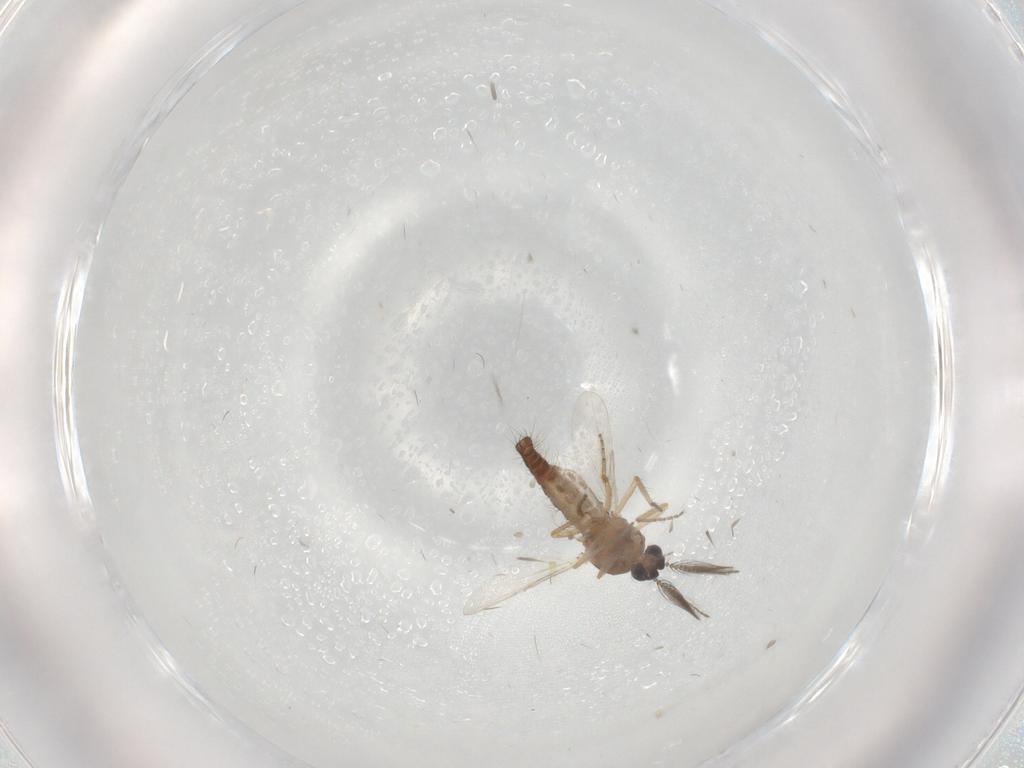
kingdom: Animalia
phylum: Arthropoda
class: Insecta
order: Diptera
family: Ceratopogonidae
